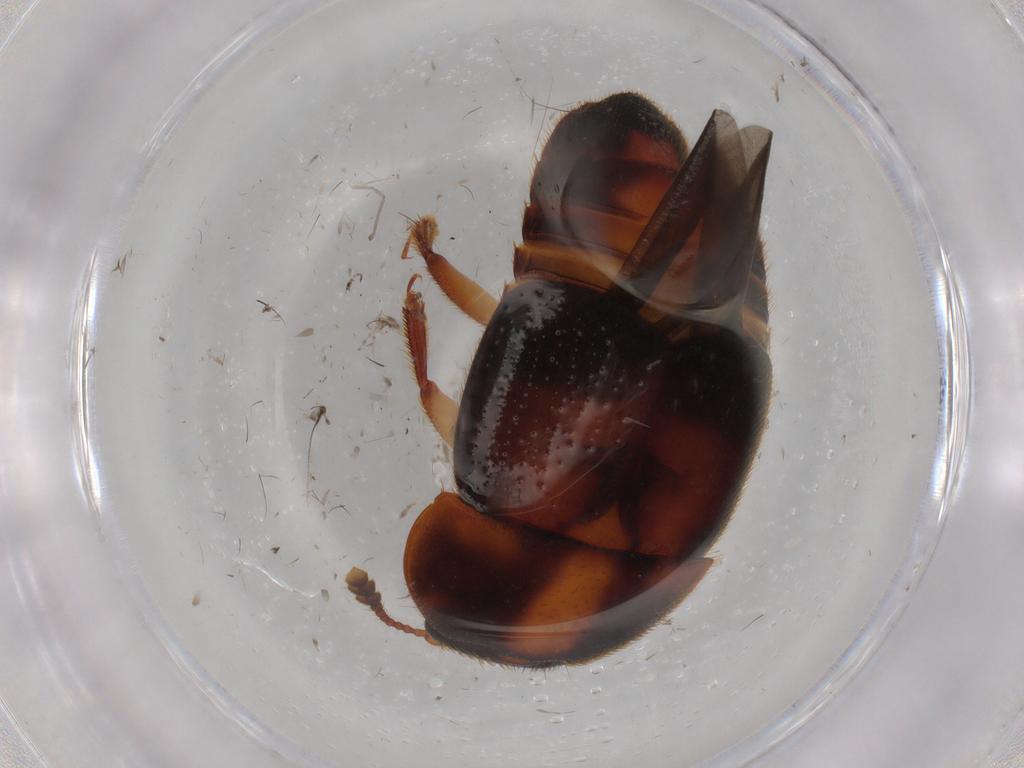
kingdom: Animalia
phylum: Arthropoda
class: Insecta
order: Coleoptera
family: Nitidulidae
